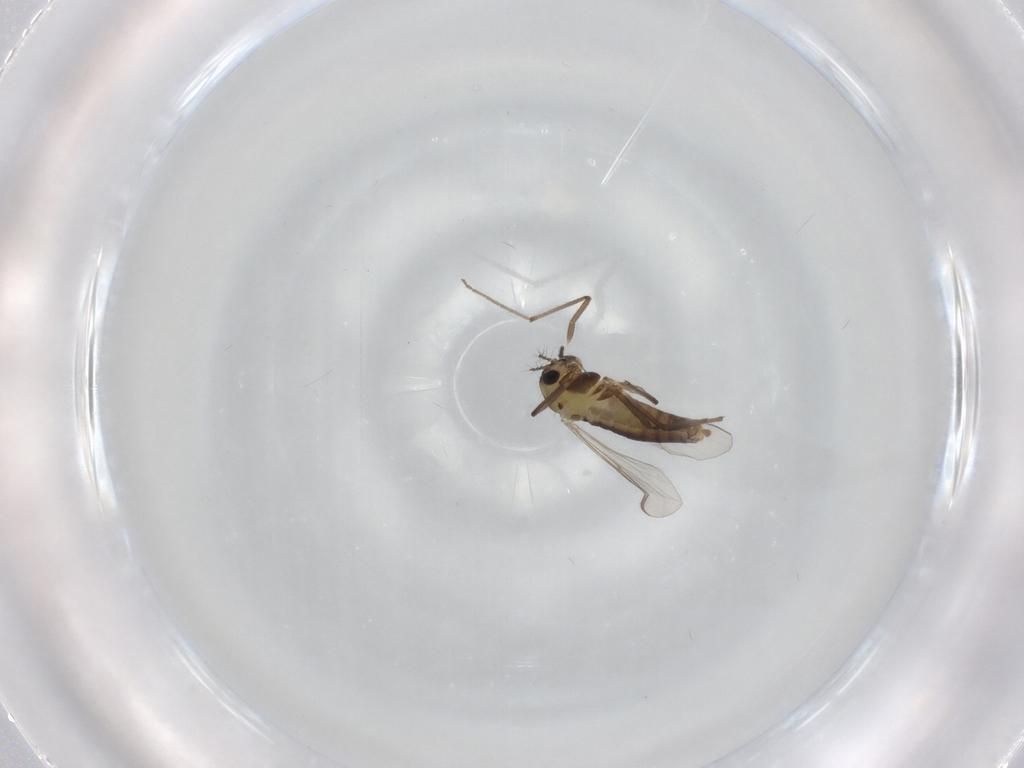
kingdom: Animalia
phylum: Arthropoda
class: Insecta
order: Diptera
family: Chironomidae
